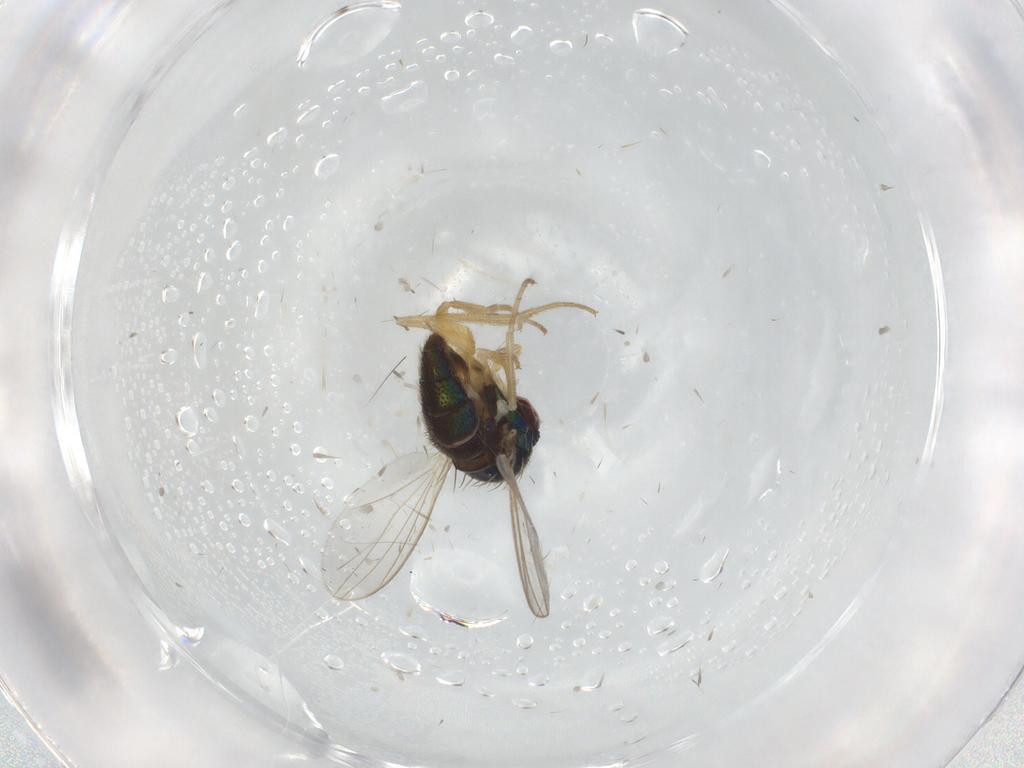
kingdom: Animalia
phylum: Arthropoda
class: Insecta
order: Diptera
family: Dolichopodidae
